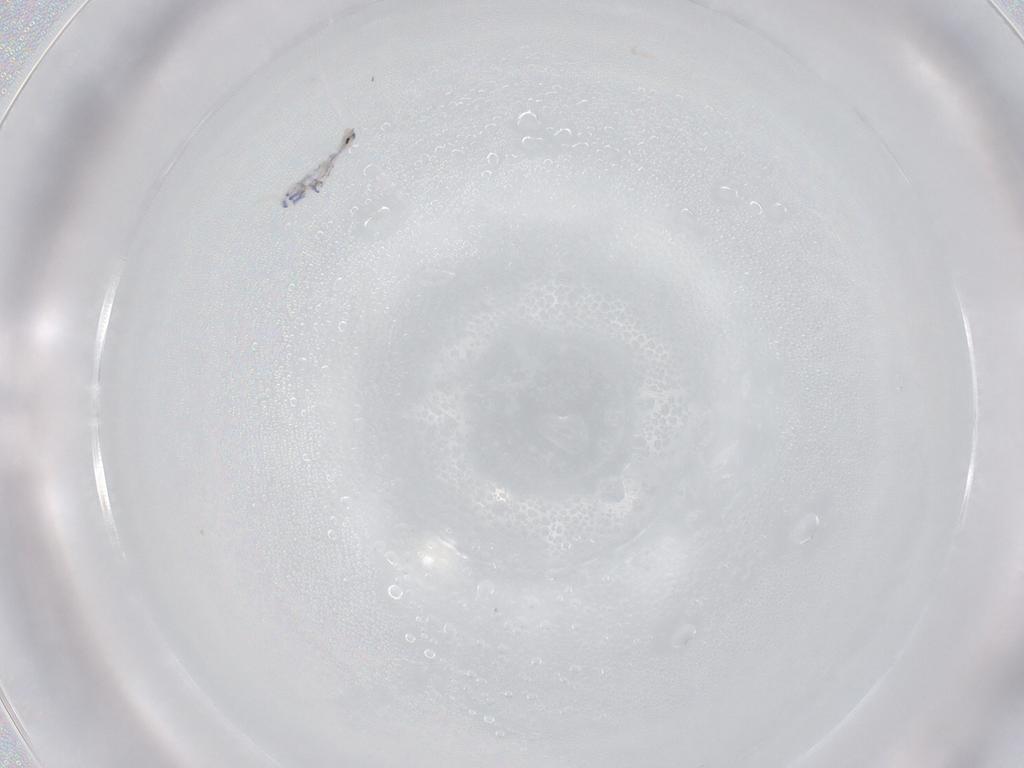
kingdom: Animalia
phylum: Arthropoda
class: Collembola
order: Entomobryomorpha
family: Entomobryidae
